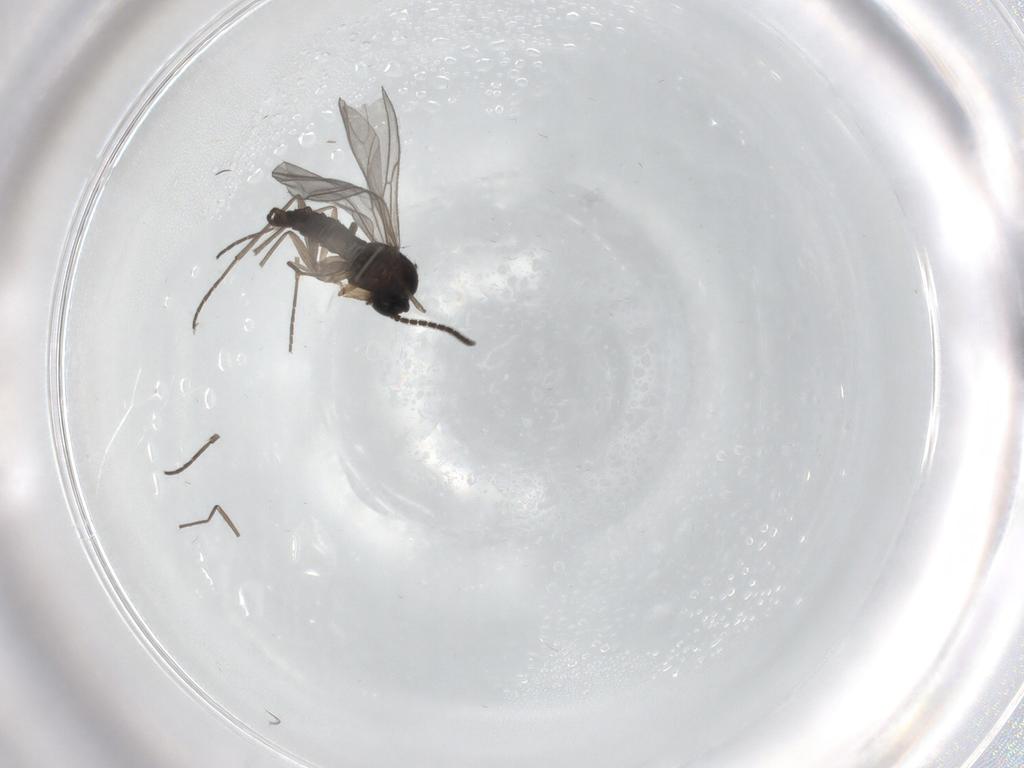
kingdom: Animalia
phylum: Arthropoda
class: Insecta
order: Diptera
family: Sciaridae
